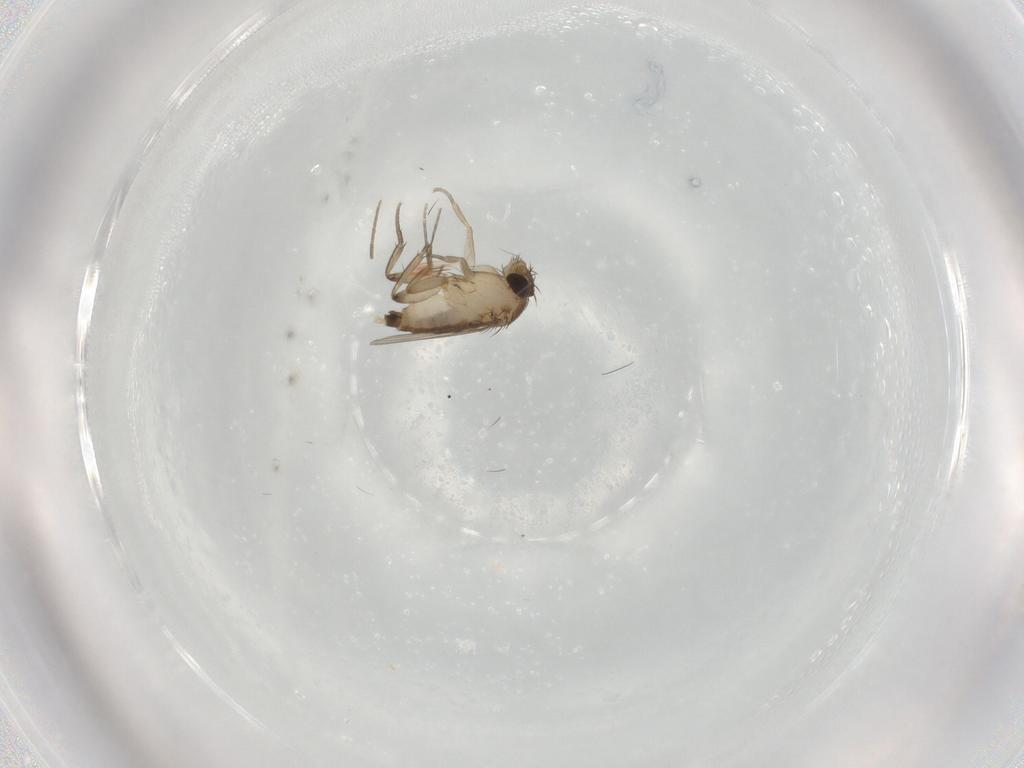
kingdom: Animalia
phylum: Arthropoda
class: Insecta
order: Diptera
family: Phoridae
